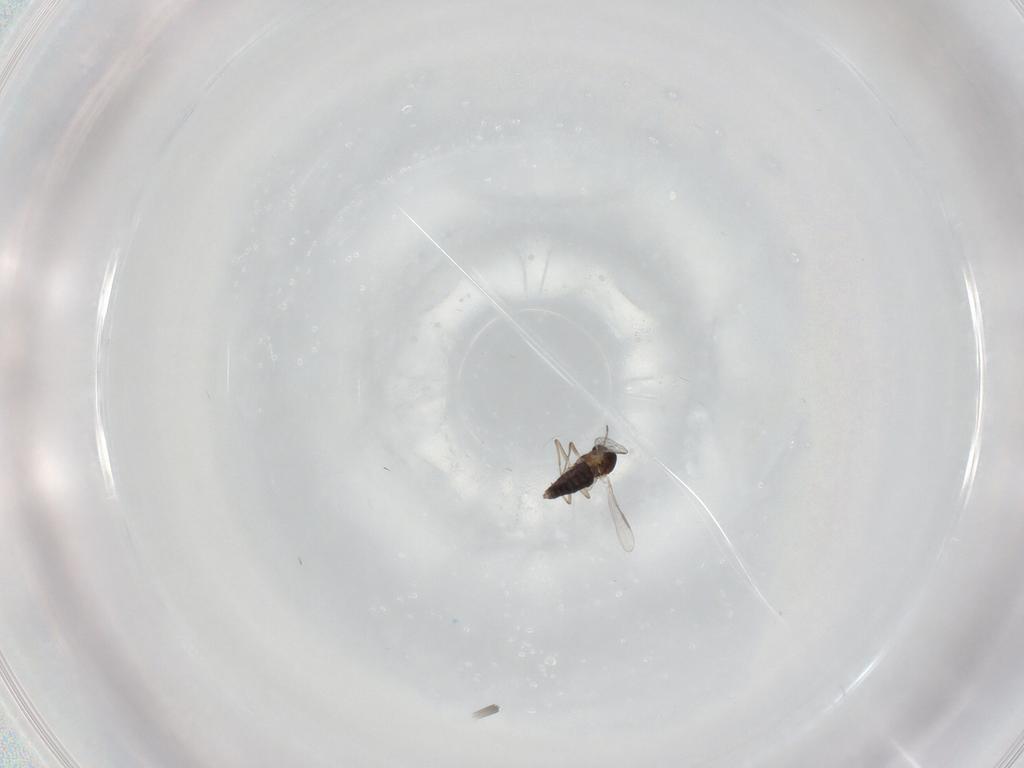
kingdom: Animalia
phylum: Arthropoda
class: Insecta
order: Diptera
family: Chironomidae
